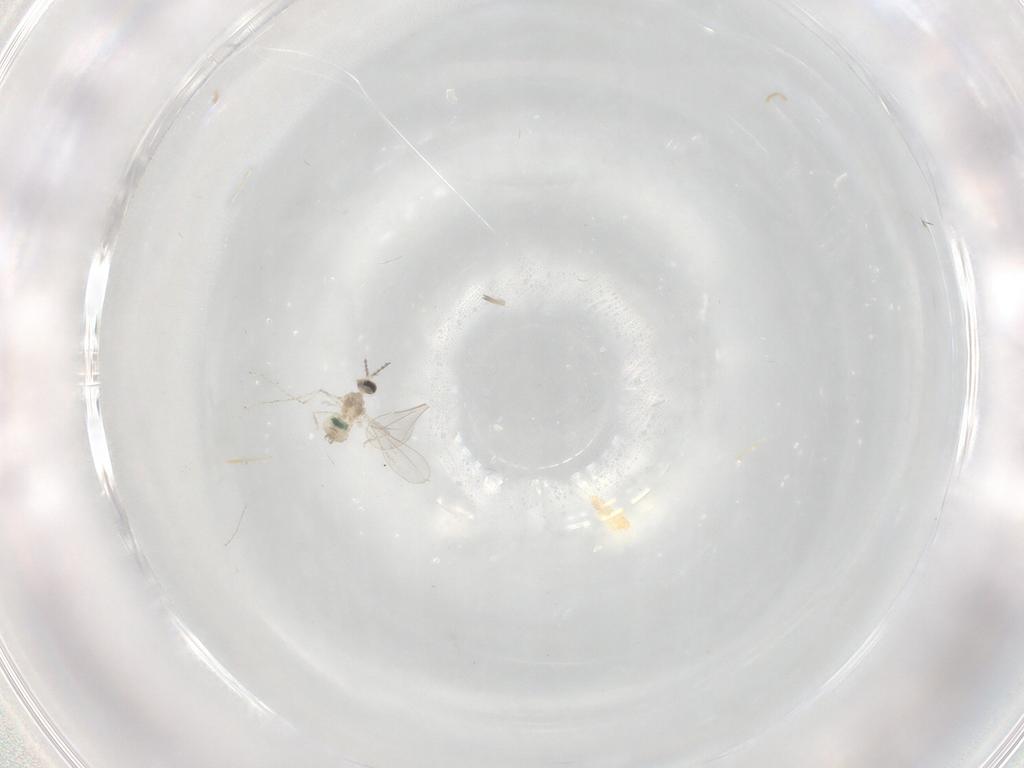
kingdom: Animalia
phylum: Arthropoda
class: Insecta
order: Diptera
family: Cecidomyiidae
